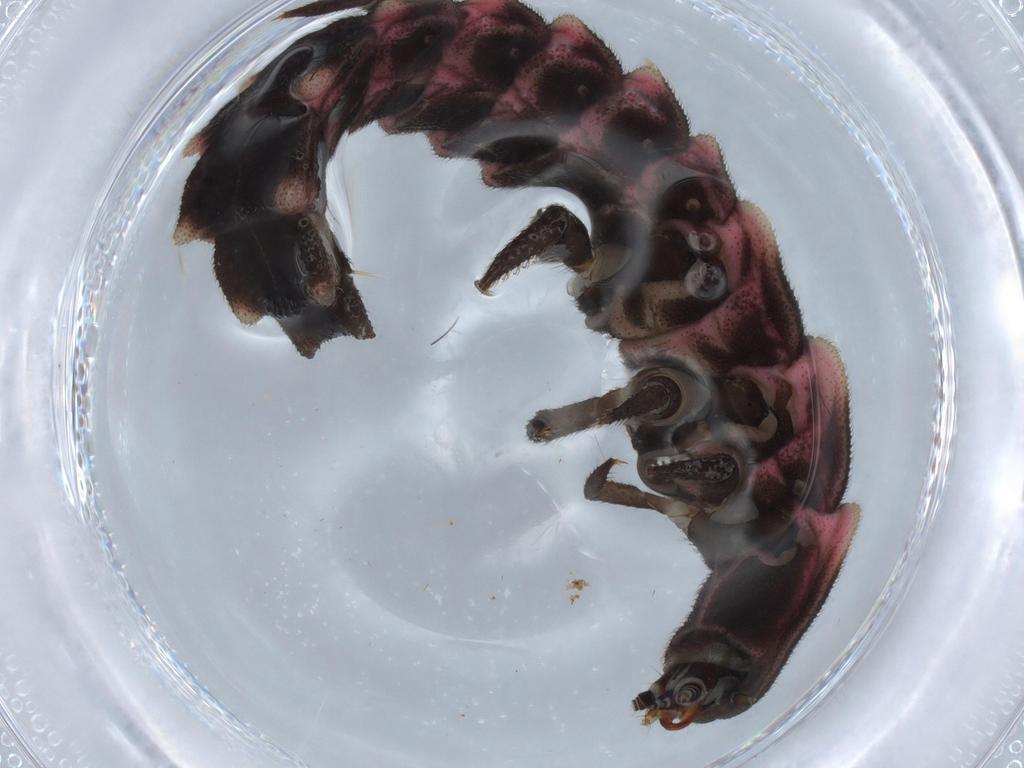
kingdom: Animalia
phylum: Arthropoda
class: Insecta
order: Coleoptera
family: Lampyridae
